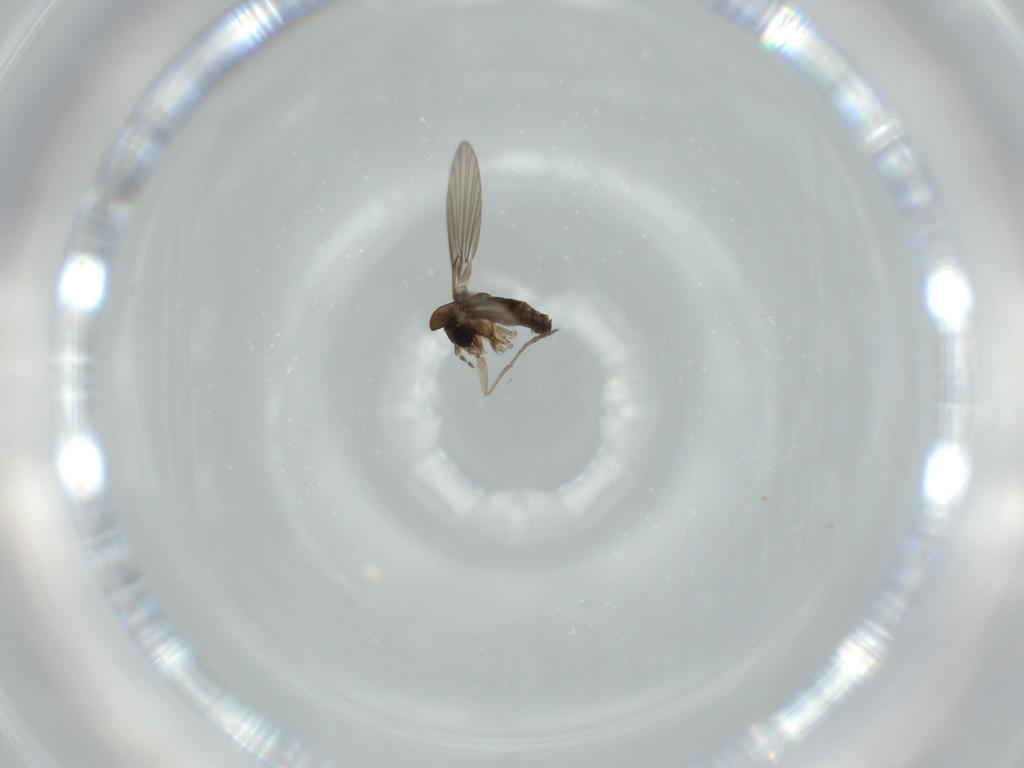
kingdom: Animalia
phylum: Arthropoda
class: Insecta
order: Diptera
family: Psychodidae
